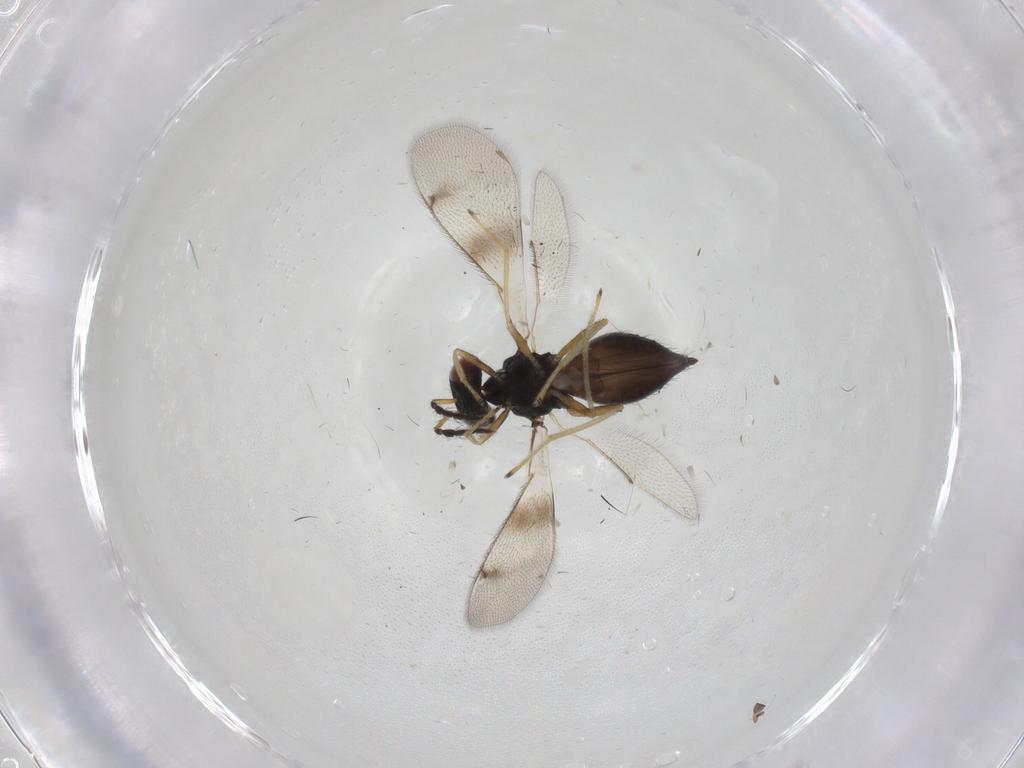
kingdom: Animalia
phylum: Arthropoda
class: Insecta
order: Hymenoptera
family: Eulophidae
